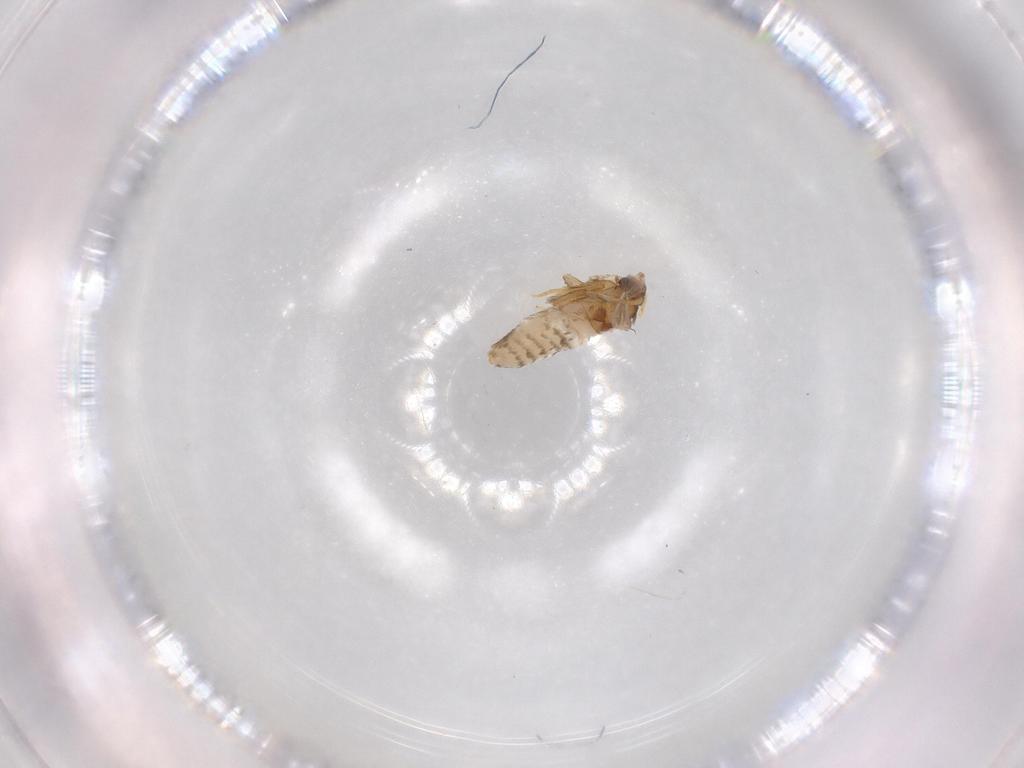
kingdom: Animalia
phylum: Arthropoda
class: Insecta
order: Lepidoptera
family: Nepticulidae
